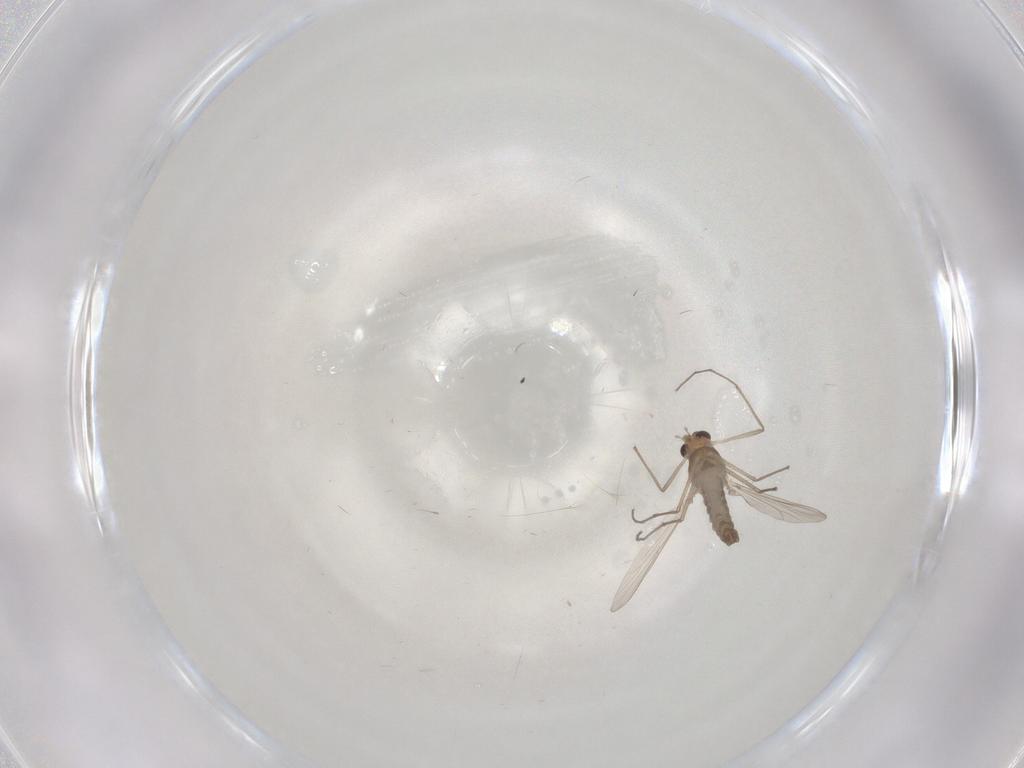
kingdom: Animalia
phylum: Arthropoda
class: Insecta
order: Diptera
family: Chironomidae
